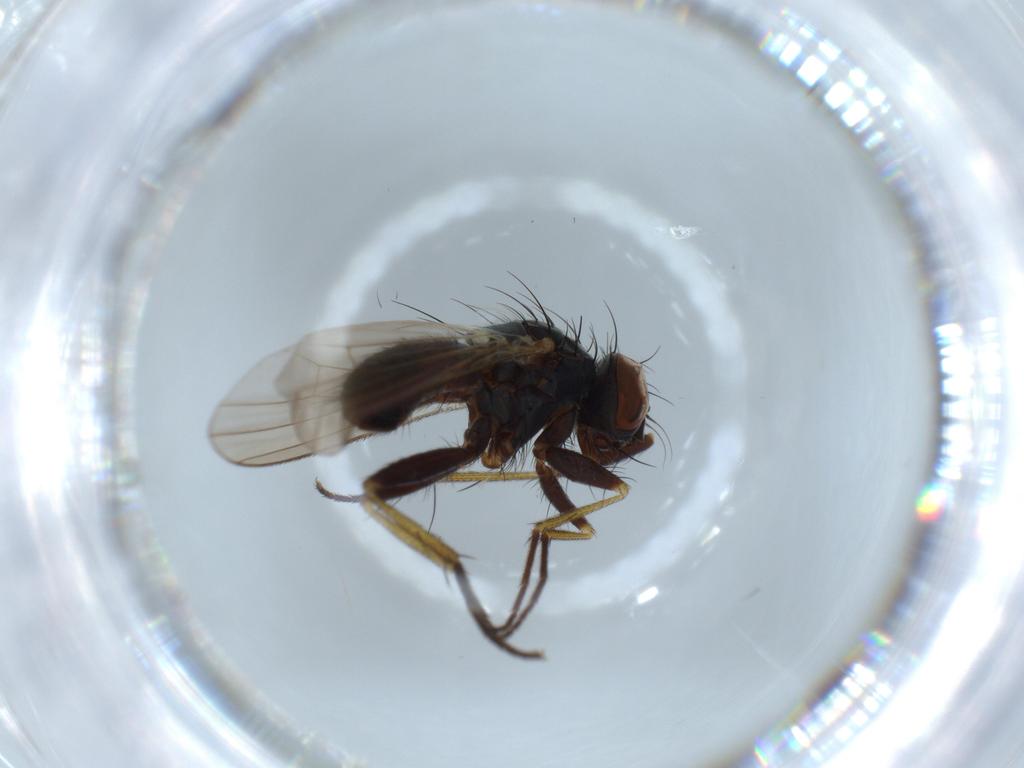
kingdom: Animalia
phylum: Arthropoda
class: Insecta
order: Diptera
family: Muscidae
